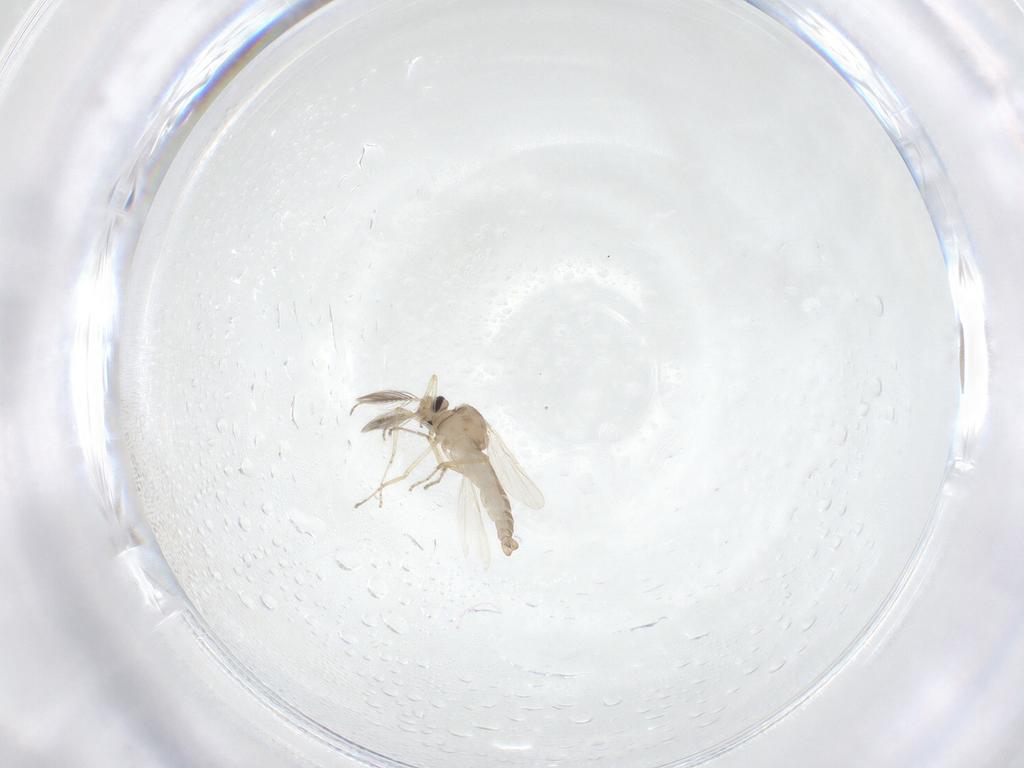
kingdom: Animalia
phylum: Arthropoda
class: Insecta
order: Diptera
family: Ceratopogonidae
